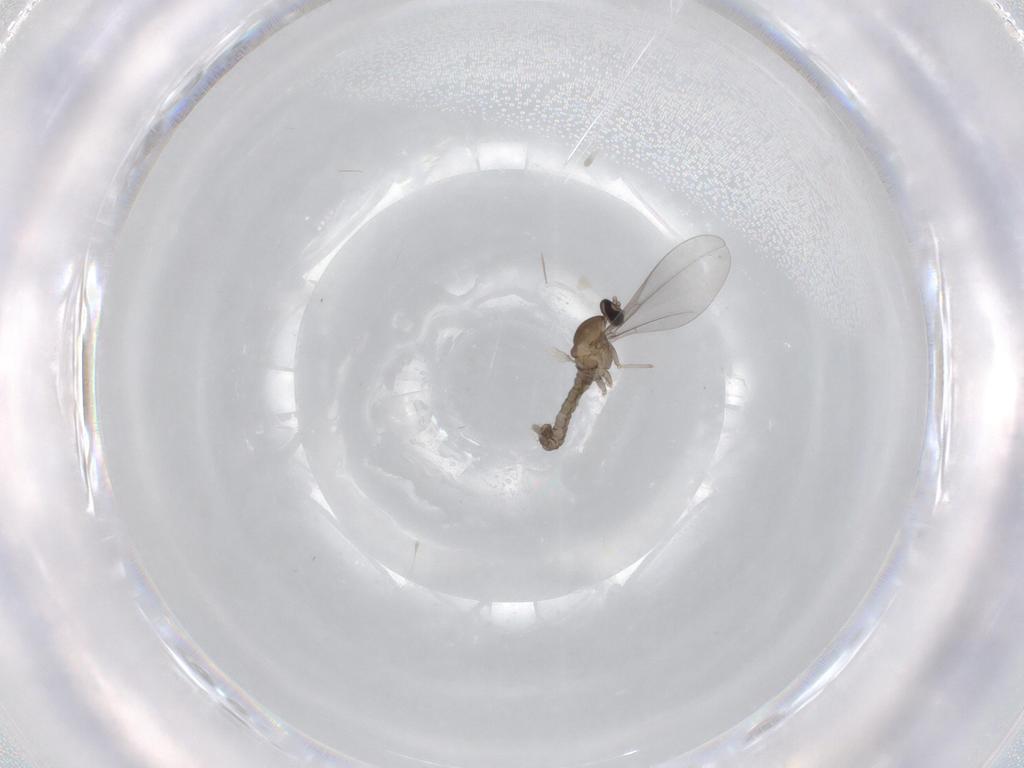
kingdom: Animalia
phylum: Arthropoda
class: Insecta
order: Diptera
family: Cecidomyiidae
